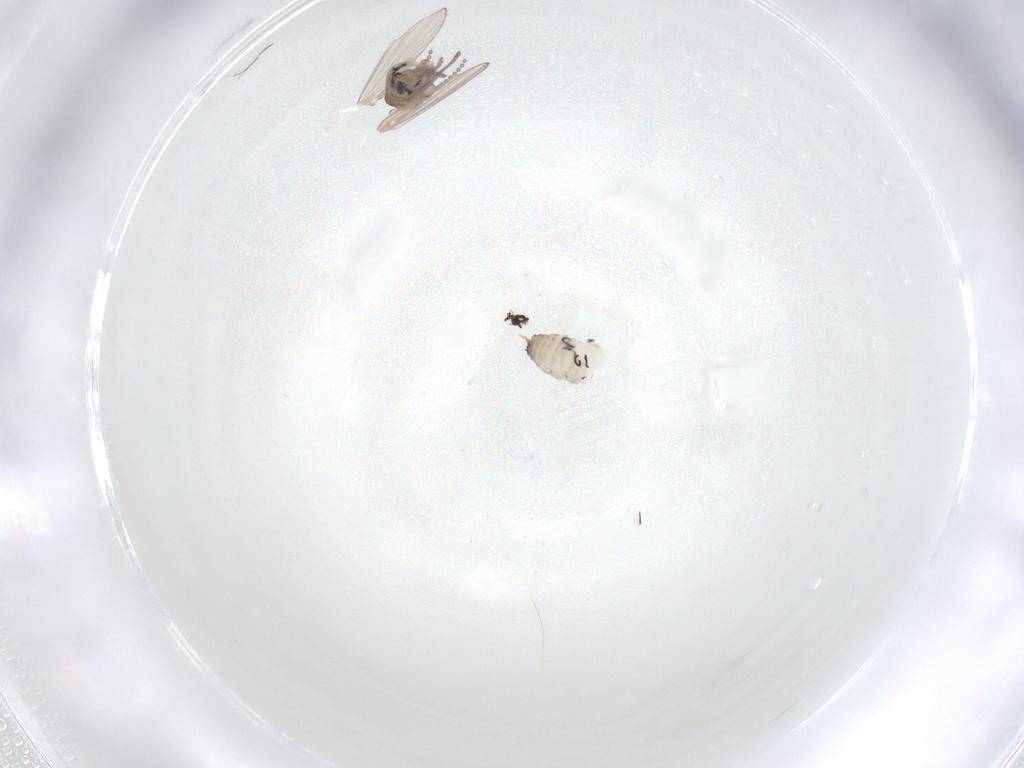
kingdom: Animalia
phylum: Arthropoda
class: Insecta
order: Diptera
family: Psychodidae
